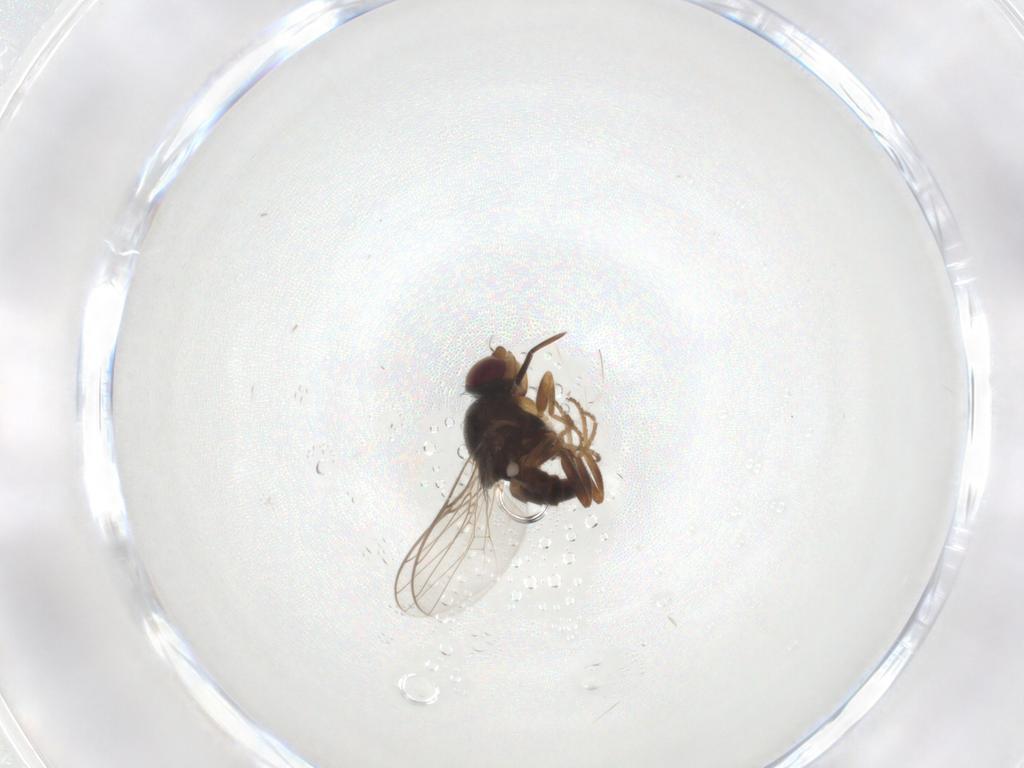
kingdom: Animalia
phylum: Arthropoda
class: Insecta
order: Diptera
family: Chloropidae
